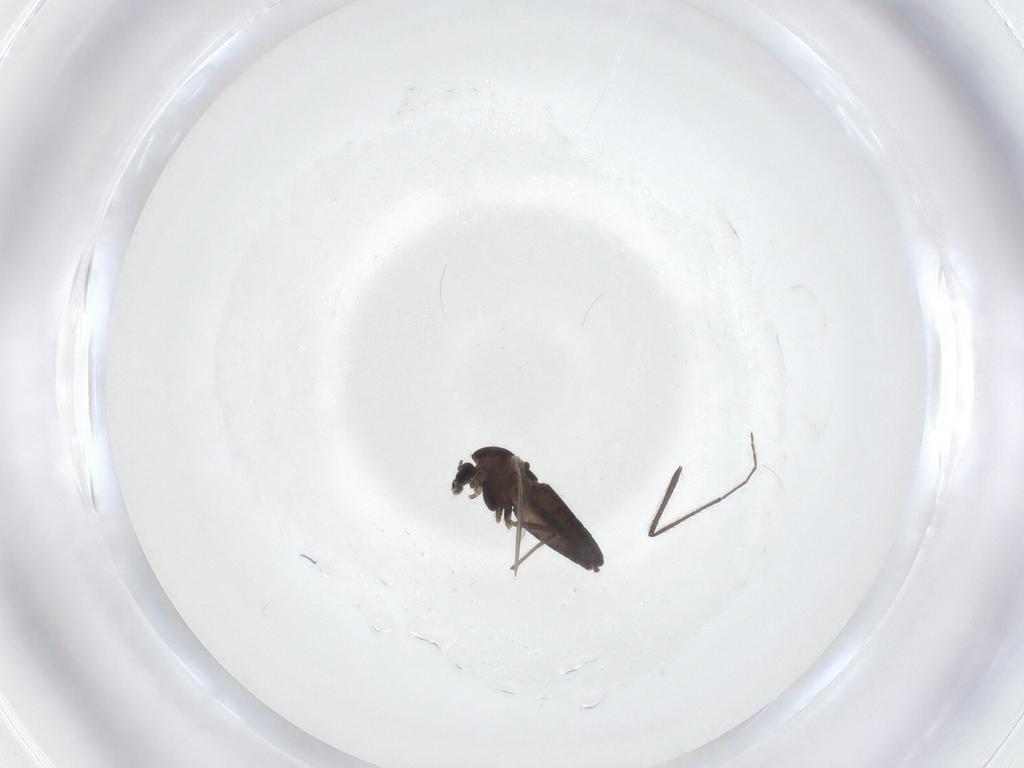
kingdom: Animalia
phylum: Arthropoda
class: Insecta
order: Diptera
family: Chironomidae
